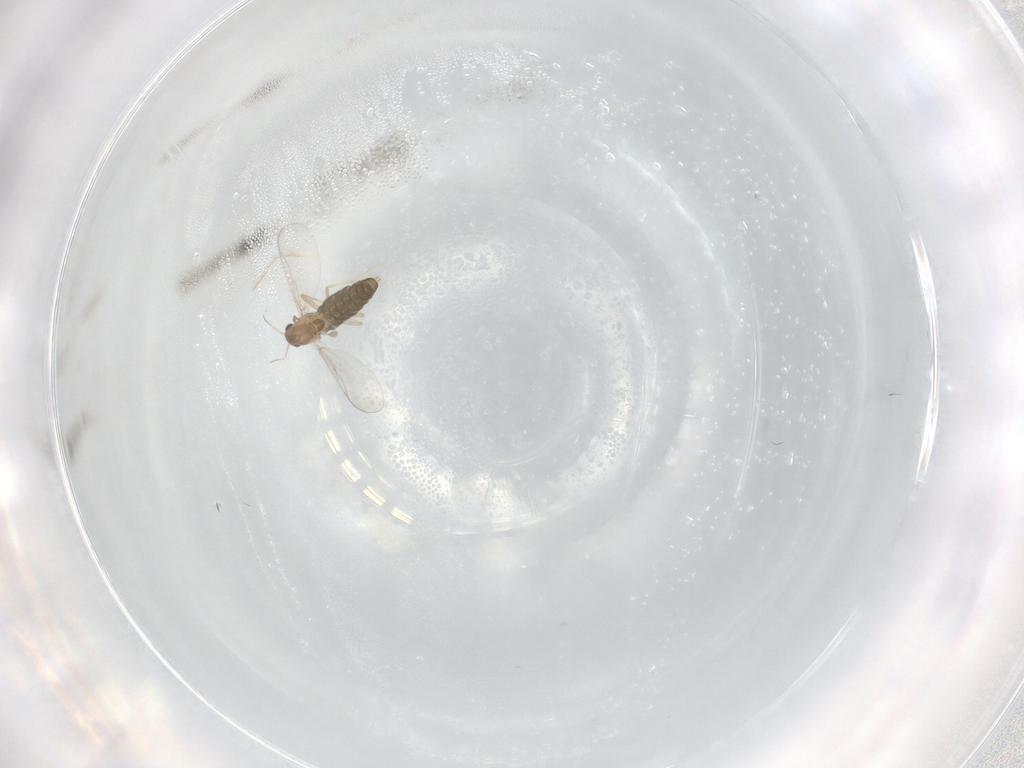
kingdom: Animalia
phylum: Arthropoda
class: Insecta
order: Diptera
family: Chironomidae
